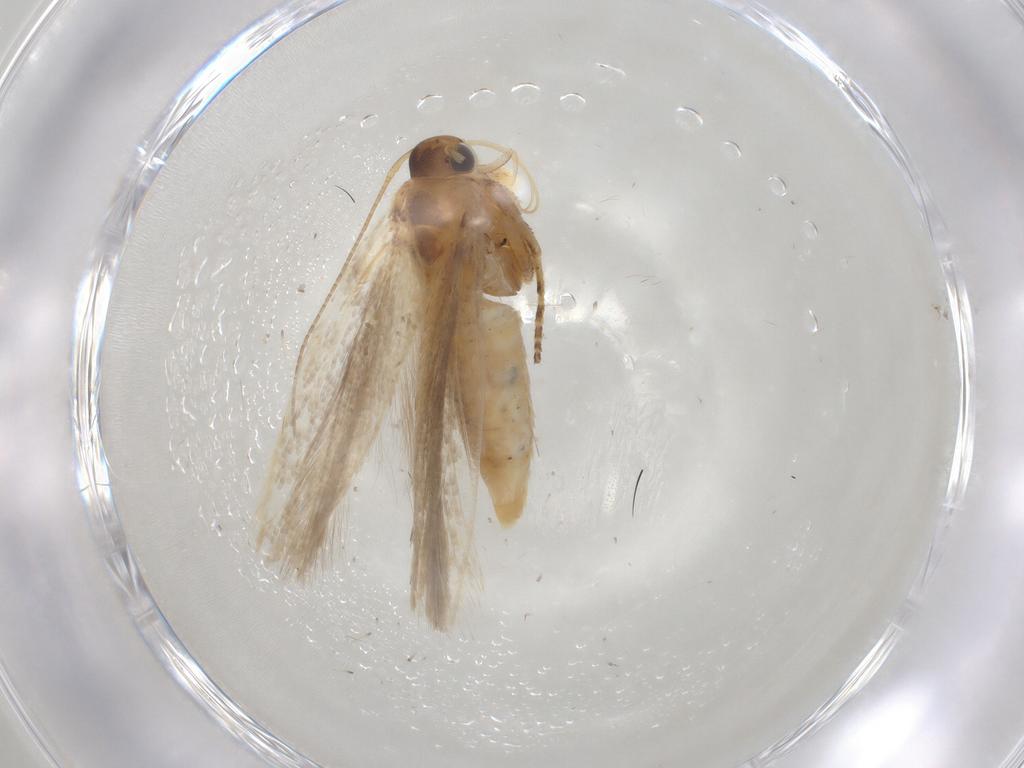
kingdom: Animalia
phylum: Arthropoda
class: Insecta
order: Lepidoptera
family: Gelechiidae
